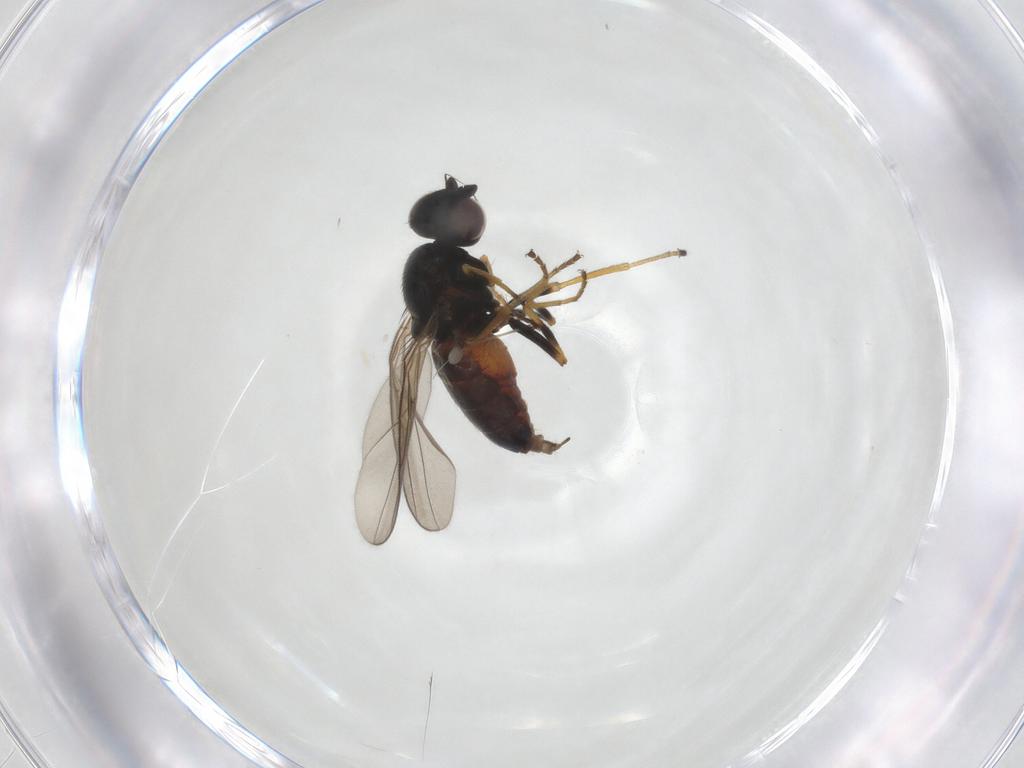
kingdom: Animalia
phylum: Arthropoda
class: Insecta
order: Diptera
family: Chloropidae
